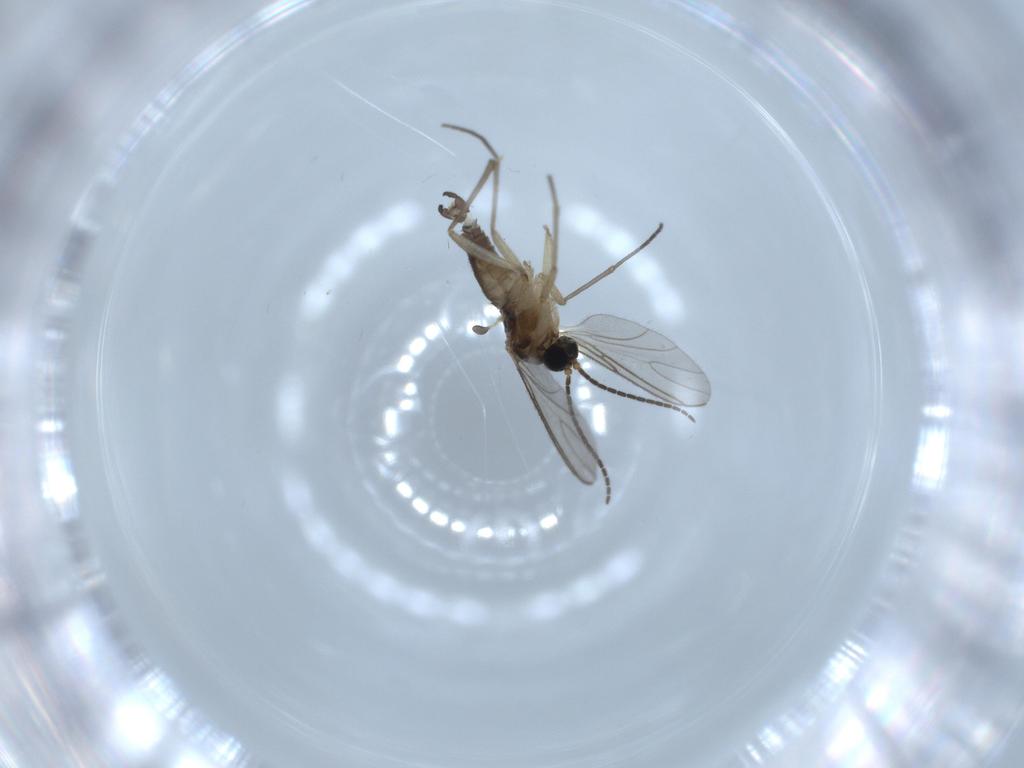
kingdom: Animalia
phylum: Arthropoda
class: Insecta
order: Diptera
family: Sciaridae
